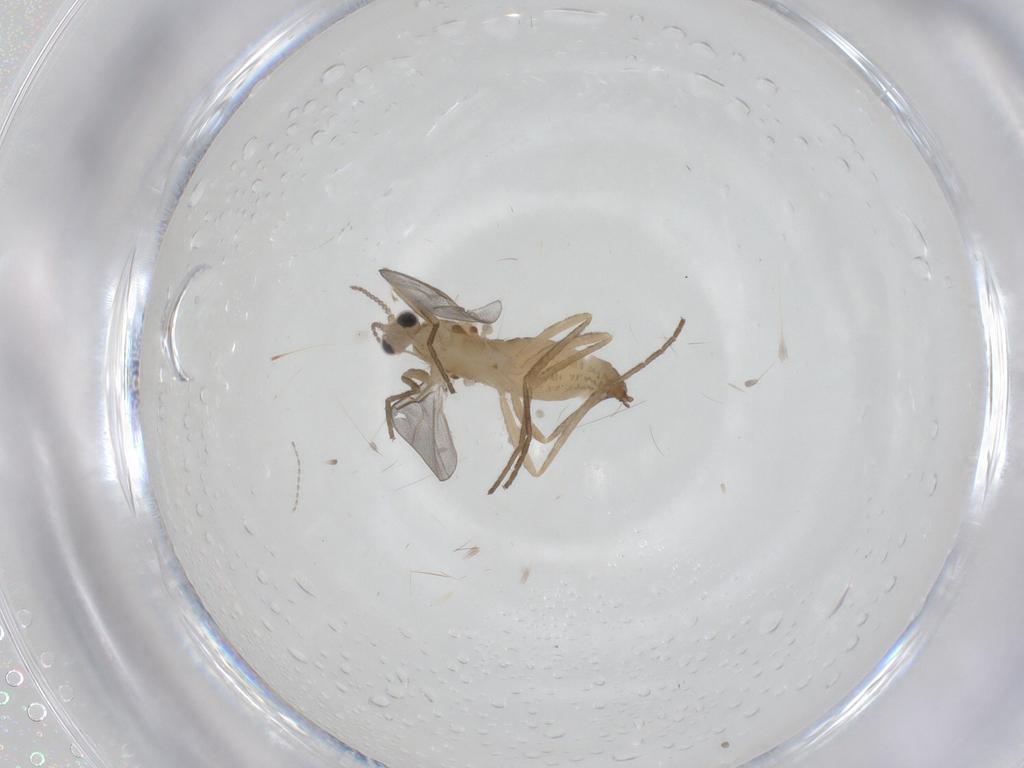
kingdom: Animalia
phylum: Arthropoda
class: Insecta
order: Diptera
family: Cecidomyiidae
